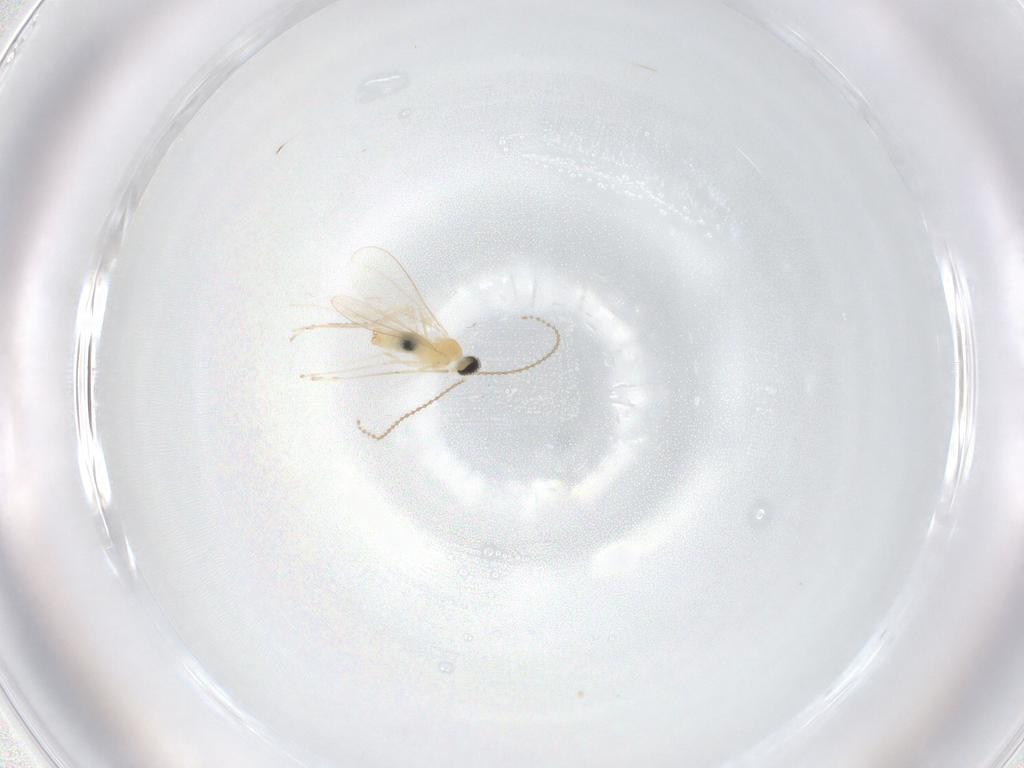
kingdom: Animalia
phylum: Arthropoda
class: Insecta
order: Diptera
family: Cecidomyiidae
